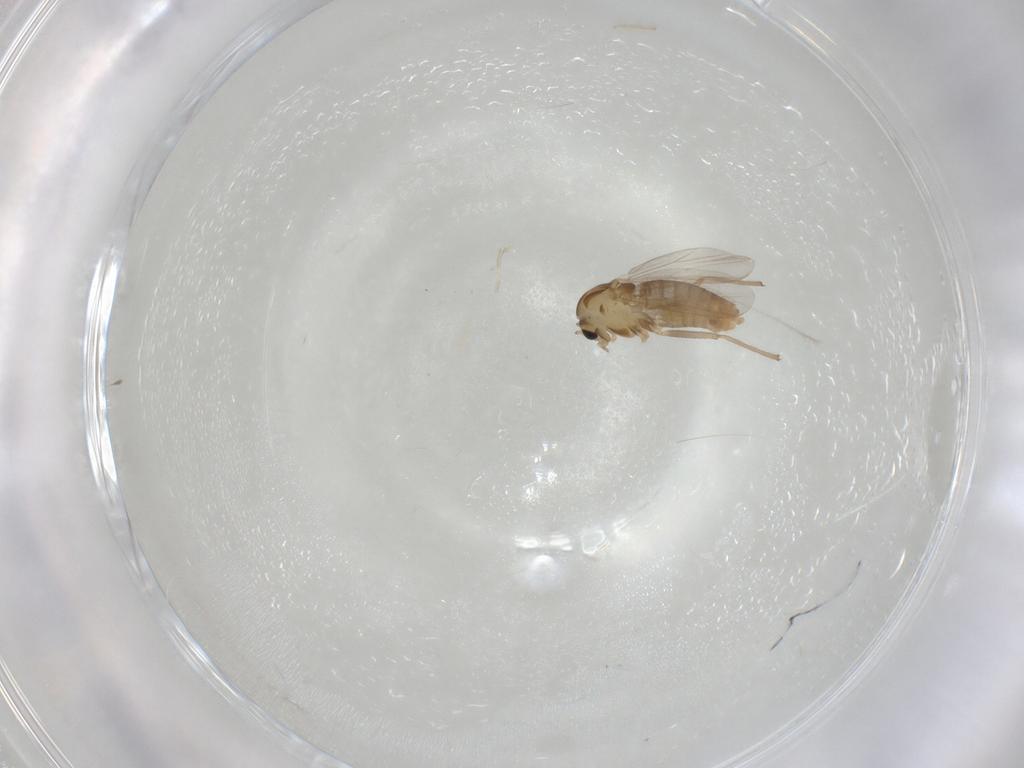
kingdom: Animalia
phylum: Arthropoda
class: Insecta
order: Diptera
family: Chironomidae
